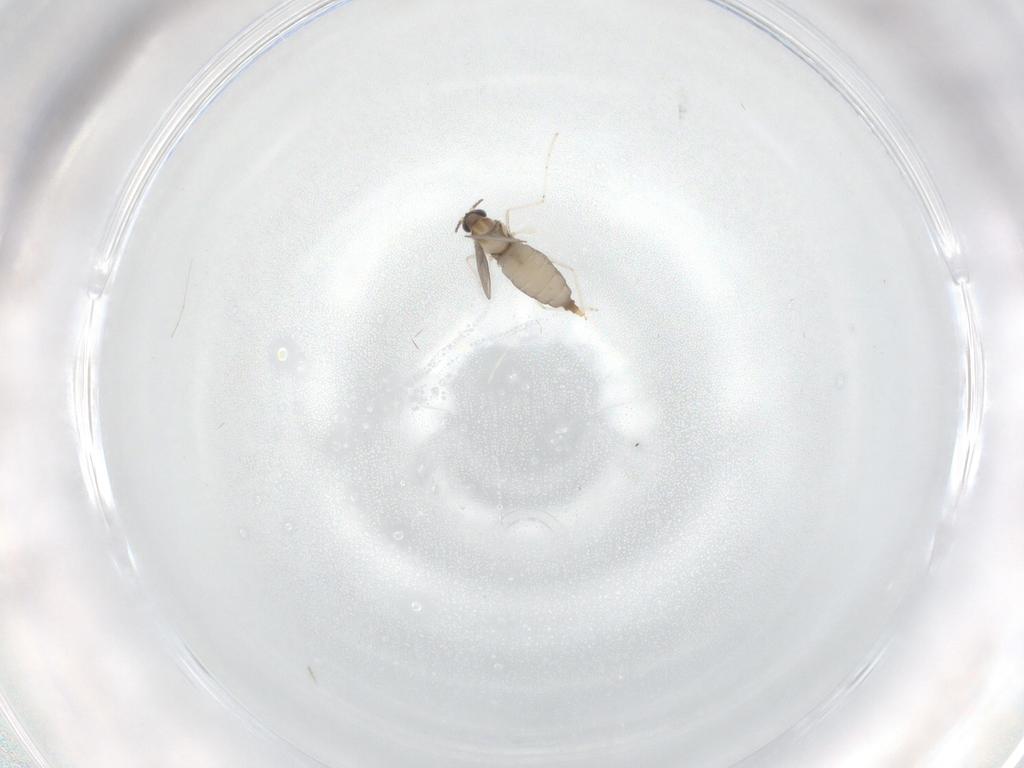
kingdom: Animalia
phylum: Arthropoda
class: Insecta
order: Diptera
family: Cecidomyiidae
